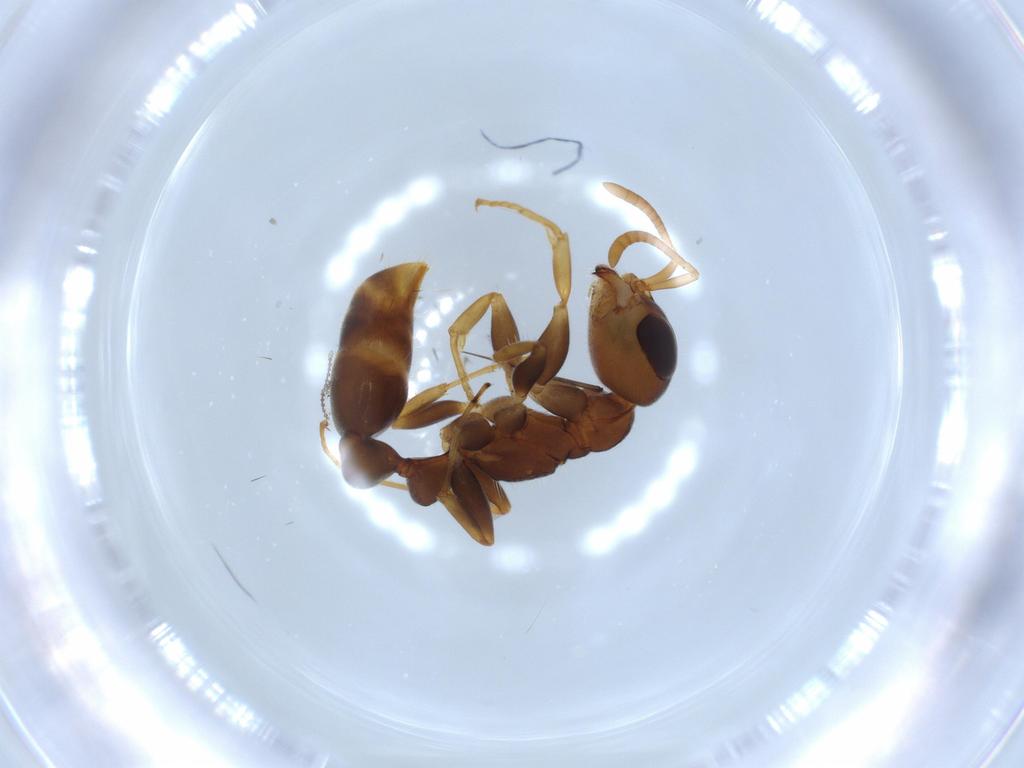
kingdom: Animalia
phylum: Arthropoda
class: Insecta
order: Hymenoptera
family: Formicidae
